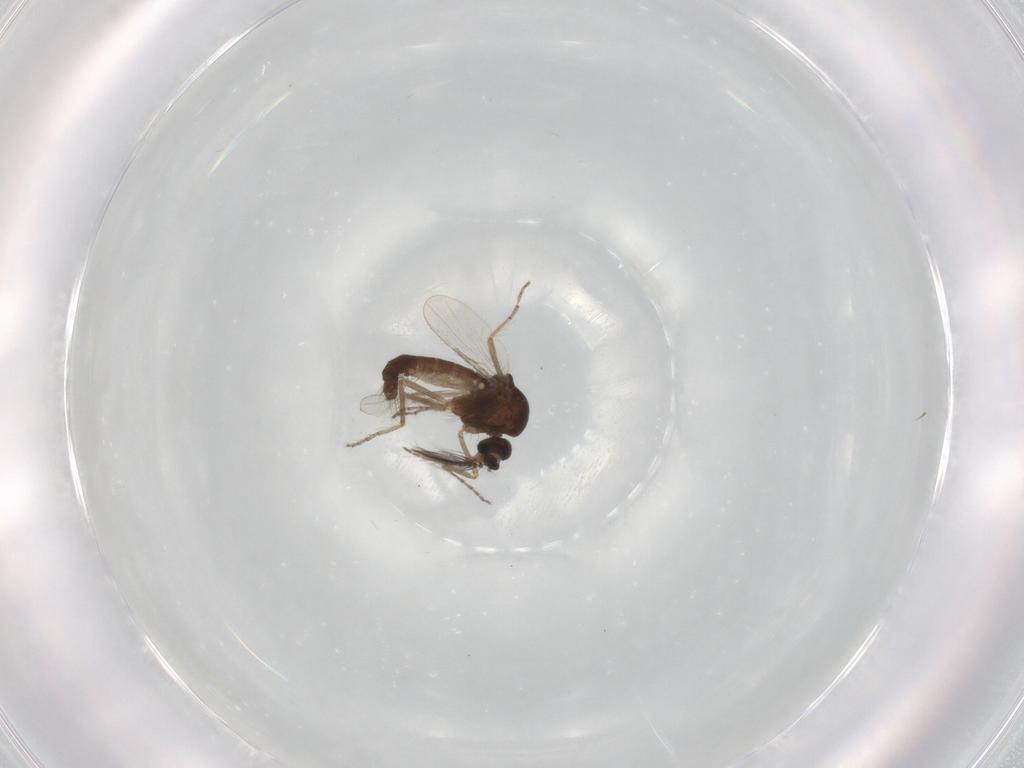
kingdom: Animalia
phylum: Arthropoda
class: Insecta
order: Diptera
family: Ceratopogonidae
